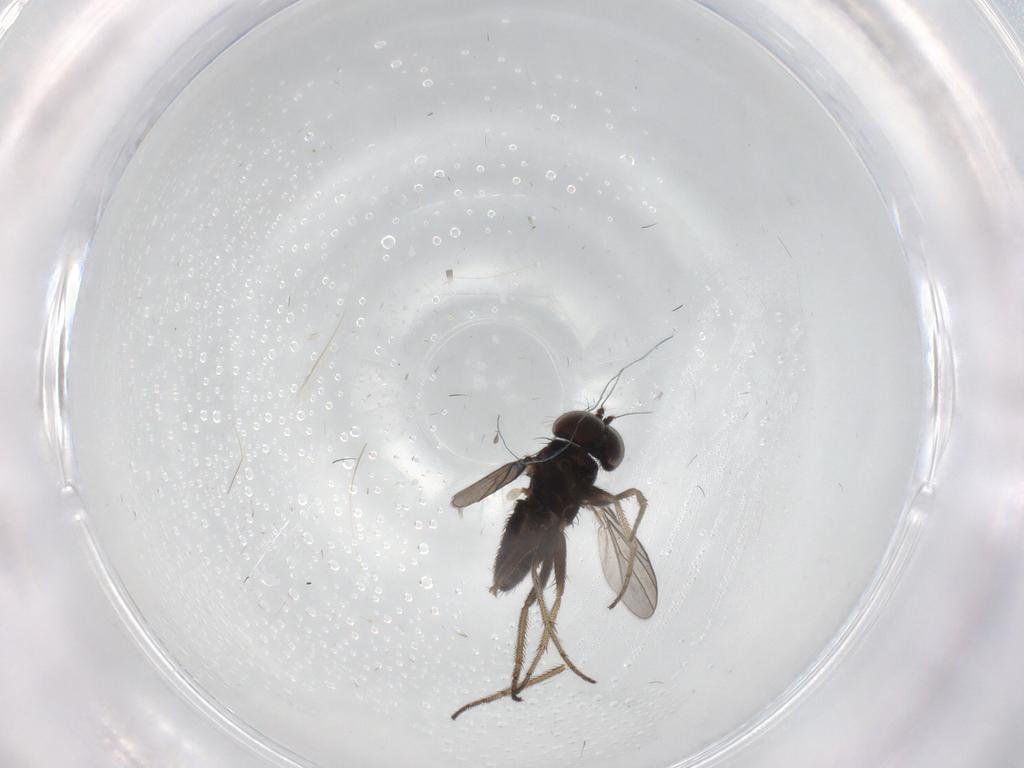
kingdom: Animalia
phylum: Arthropoda
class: Insecta
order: Diptera
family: Dolichopodidae
